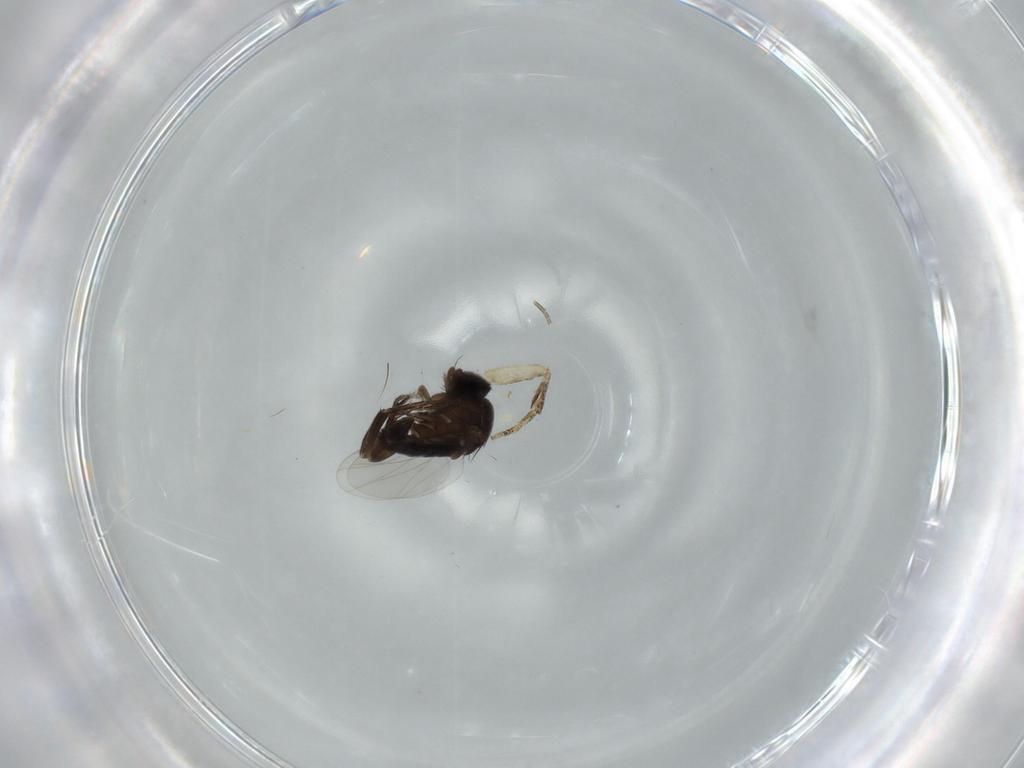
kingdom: Animalia
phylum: Arthropoda
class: Insecta
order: Diptera
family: Phoridae
